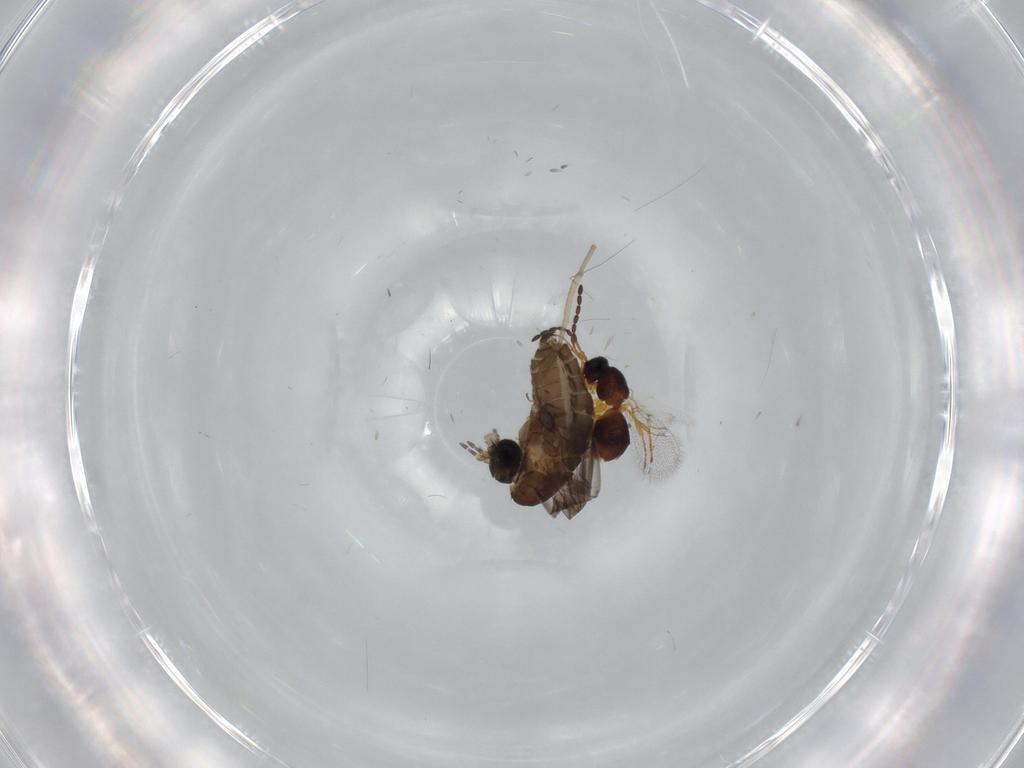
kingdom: Animalia
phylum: Arthropoda
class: Insecta
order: Hymenoptera
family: Figitidae
